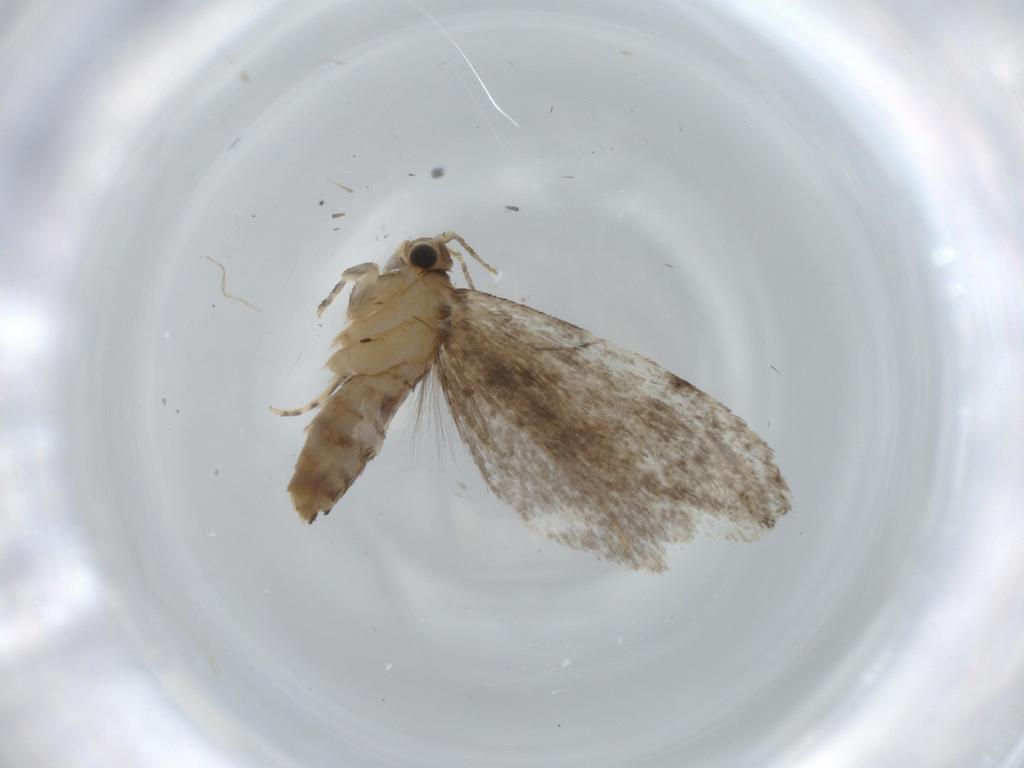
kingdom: Animalia
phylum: Arthropoda
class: Insecta
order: Lepidoptera
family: Tineidae
